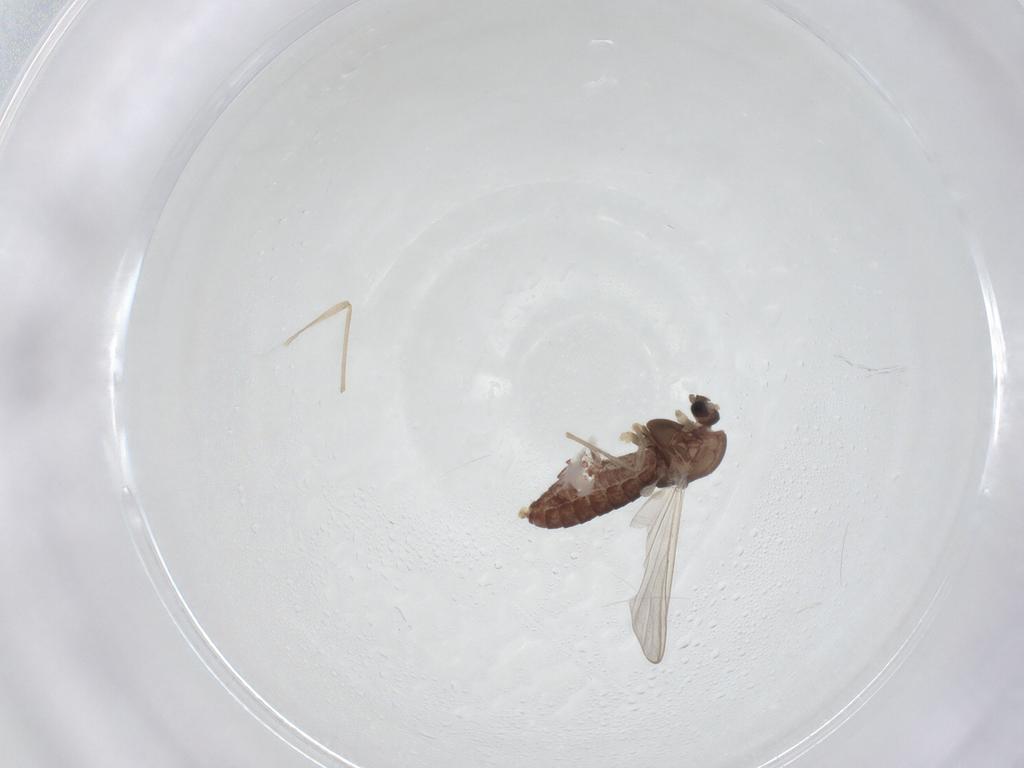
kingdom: Animalia
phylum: Arthropoda
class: Insecta
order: Diptera
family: Chironomidae
